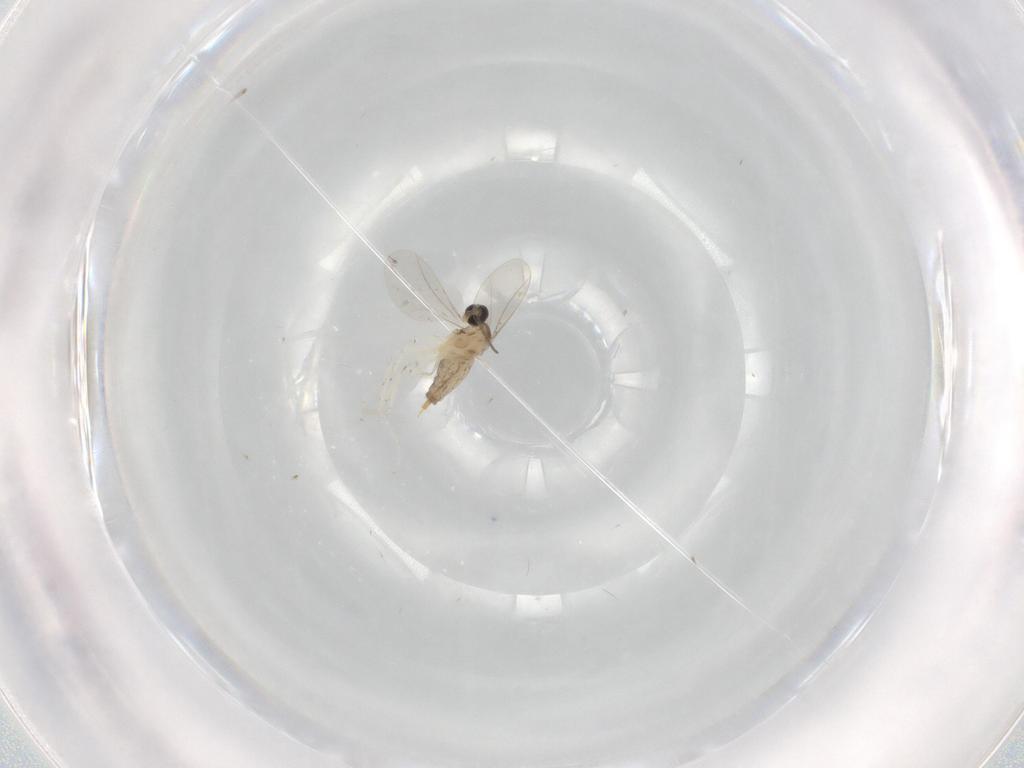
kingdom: Animalia
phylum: Arthropoda
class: Insecta
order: Diptera
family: Cecidomyiidae
